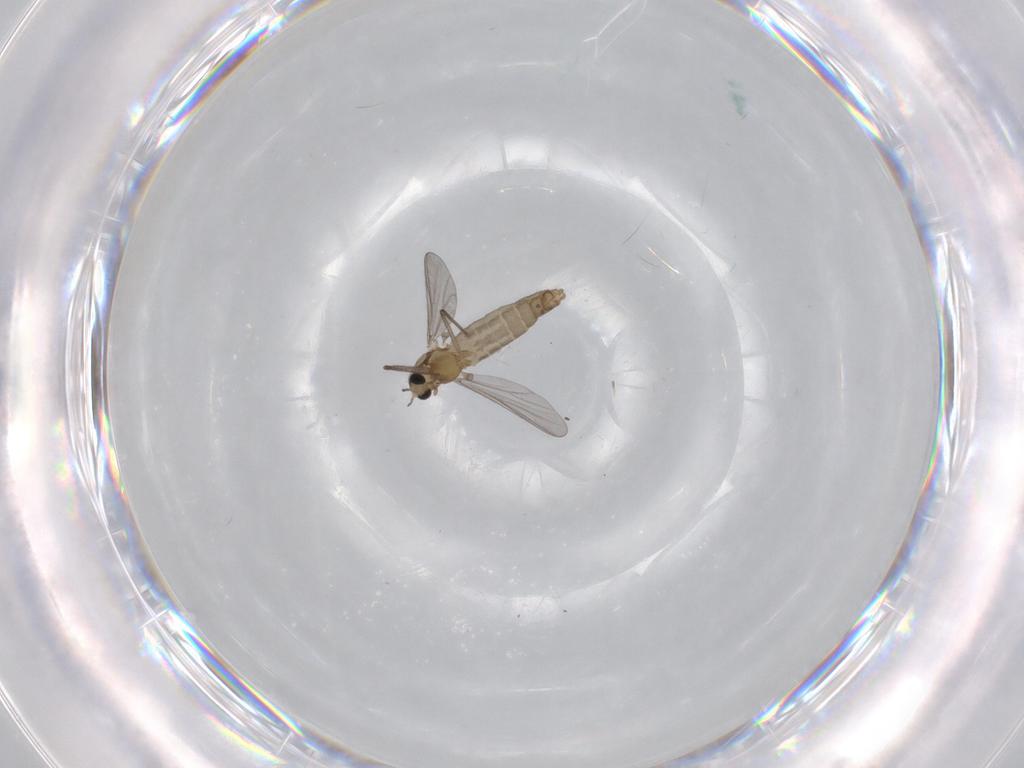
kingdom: Animalia
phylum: Arthropoda
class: Insecta
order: Diptera
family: Chironomidae
